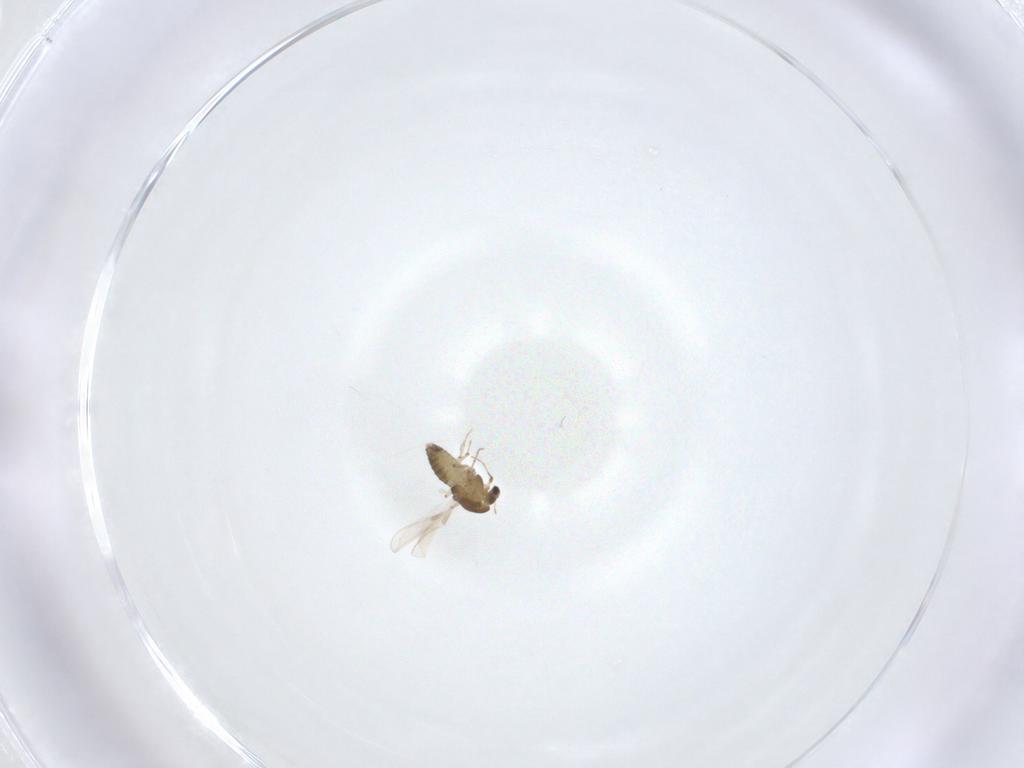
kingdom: Animalia
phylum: Arthropoda
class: Insecta
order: Diptera
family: Chironomidae
